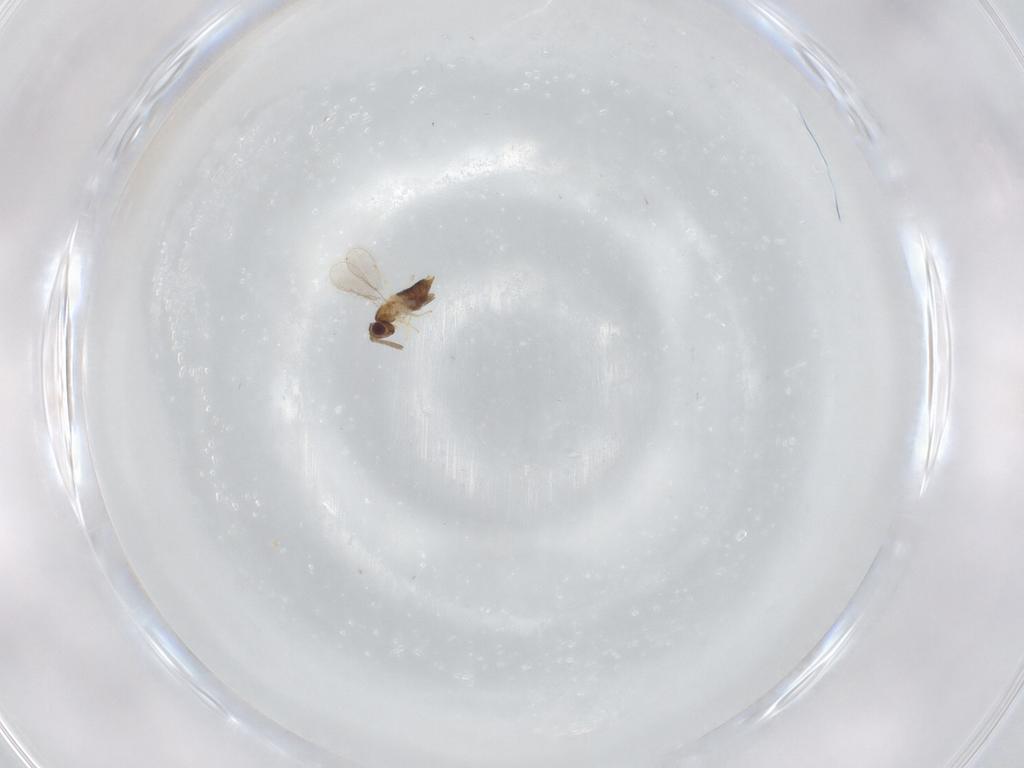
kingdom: Animalia
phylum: Arthropoda
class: Insecta
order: Hymenoptera
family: Aphelinidae
